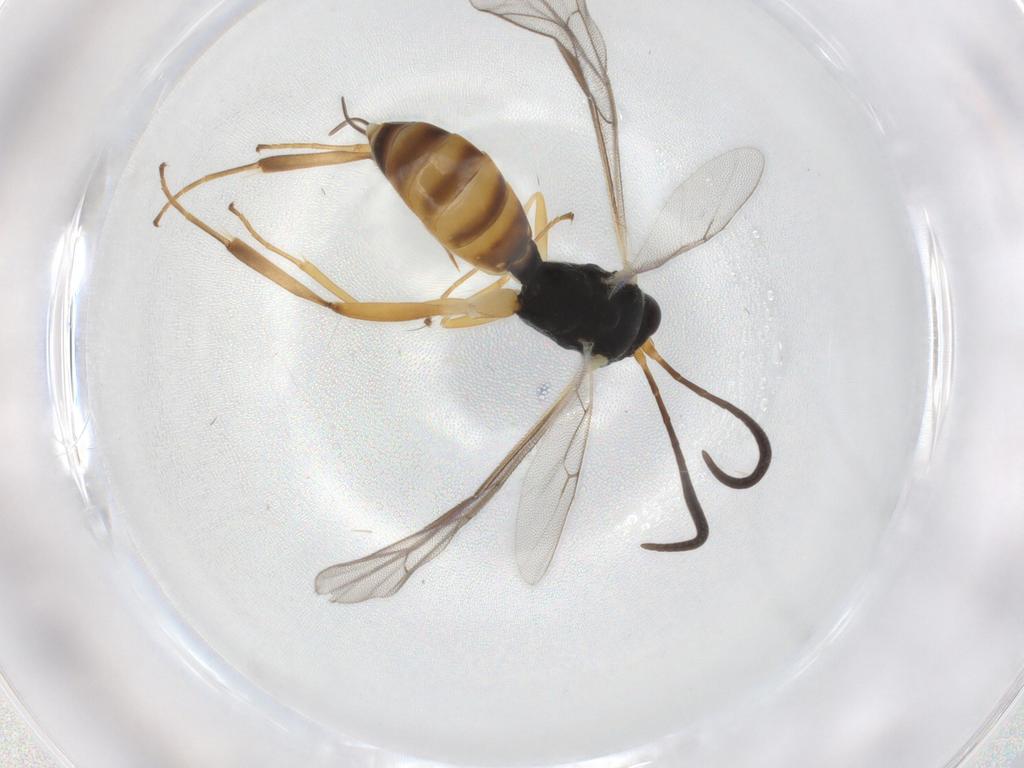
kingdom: Animalia
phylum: Arthropoda
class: Insecta
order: Hymenoptera
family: Ichneumonidae
